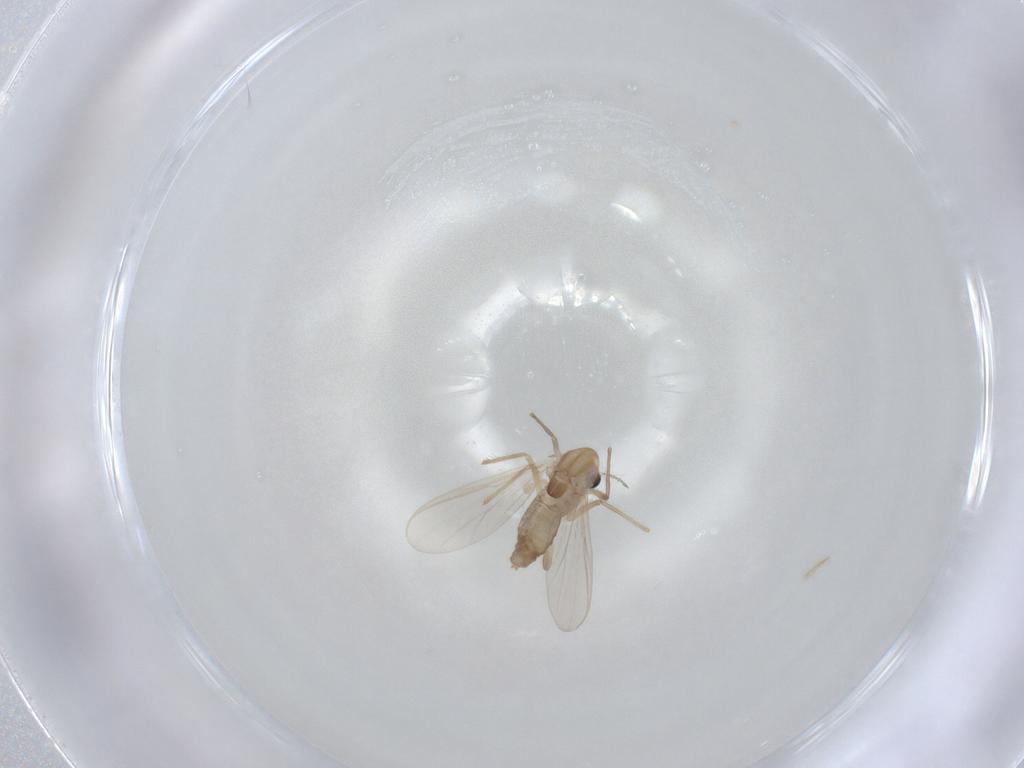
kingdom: Animalia
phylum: Arthropoda
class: Insecta
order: Diptera
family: Chironomidae
